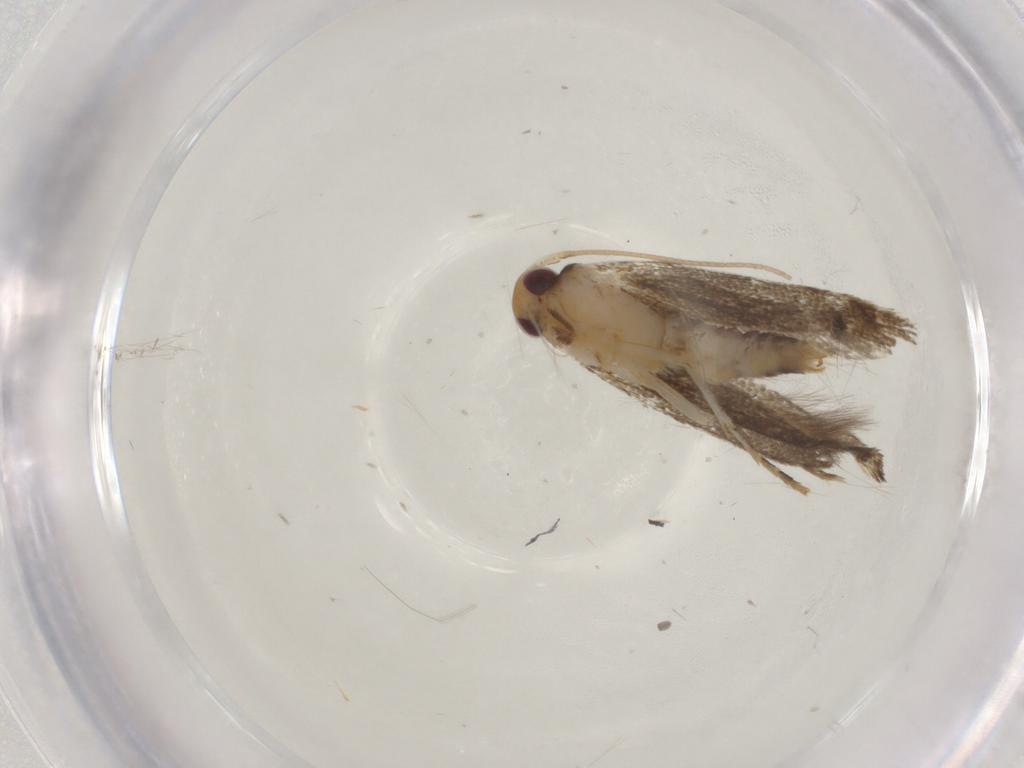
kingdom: Animalia
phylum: Arthropoda
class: Insecta
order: Lepidoptera
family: Momphidae
